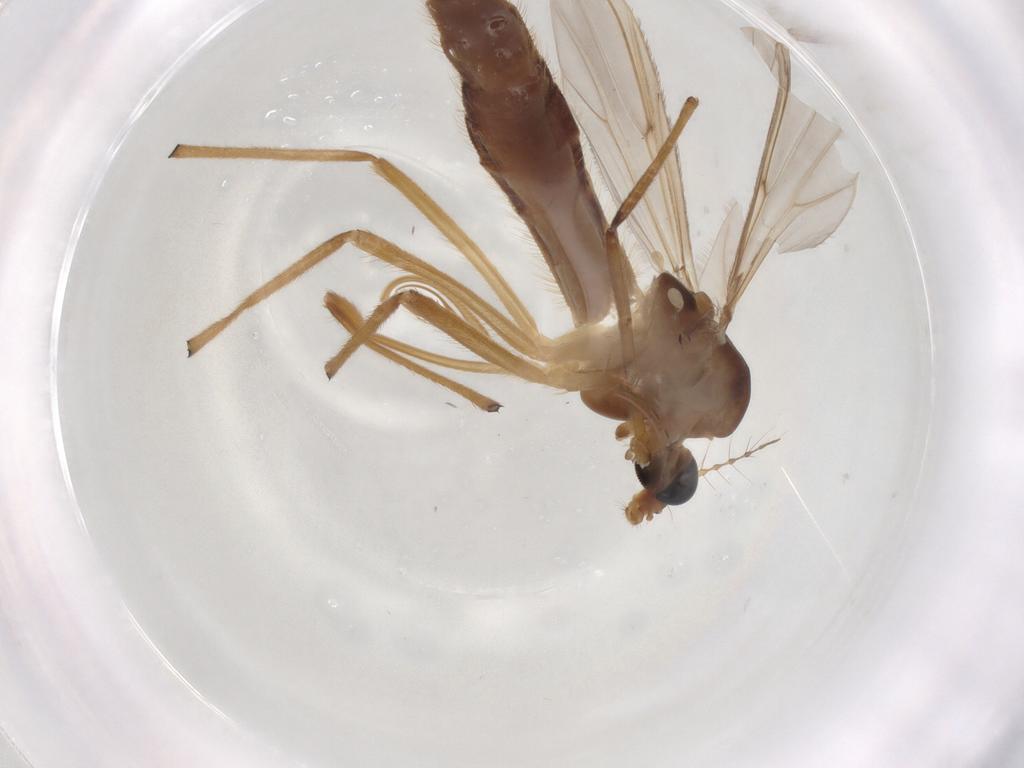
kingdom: Animalia
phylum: Arthropoda
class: Insecta
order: Diptera
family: Chironomidae
